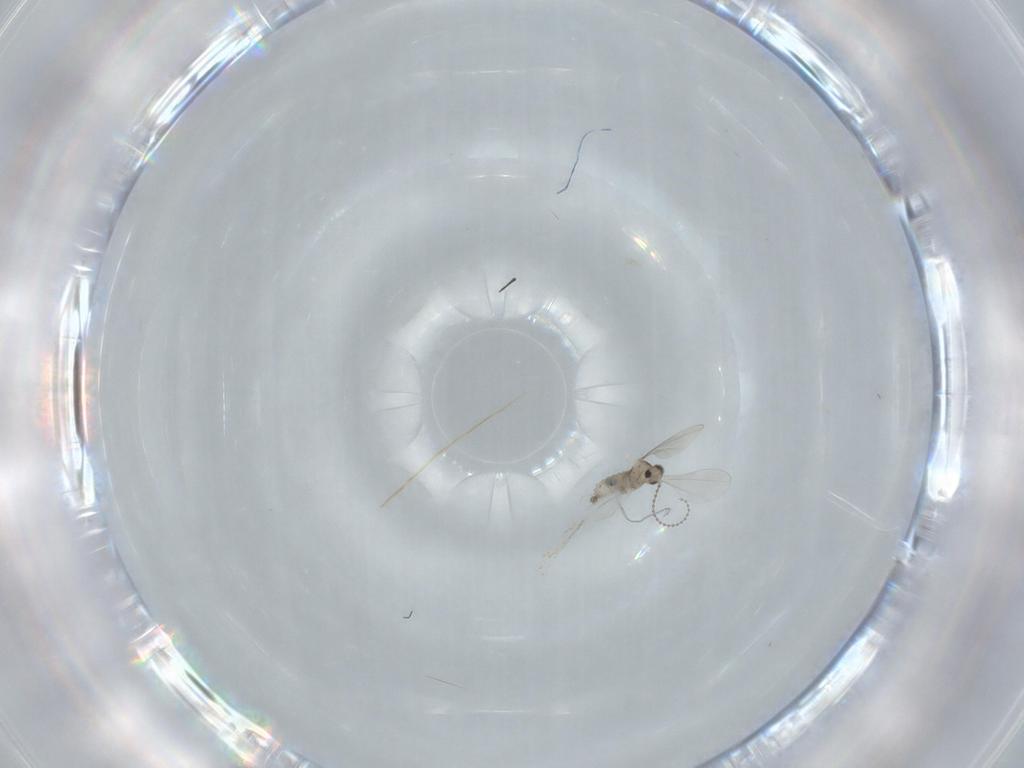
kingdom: Animalia
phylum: Arthropoda
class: Insecta
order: Diptera
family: Cecidomyiidae
